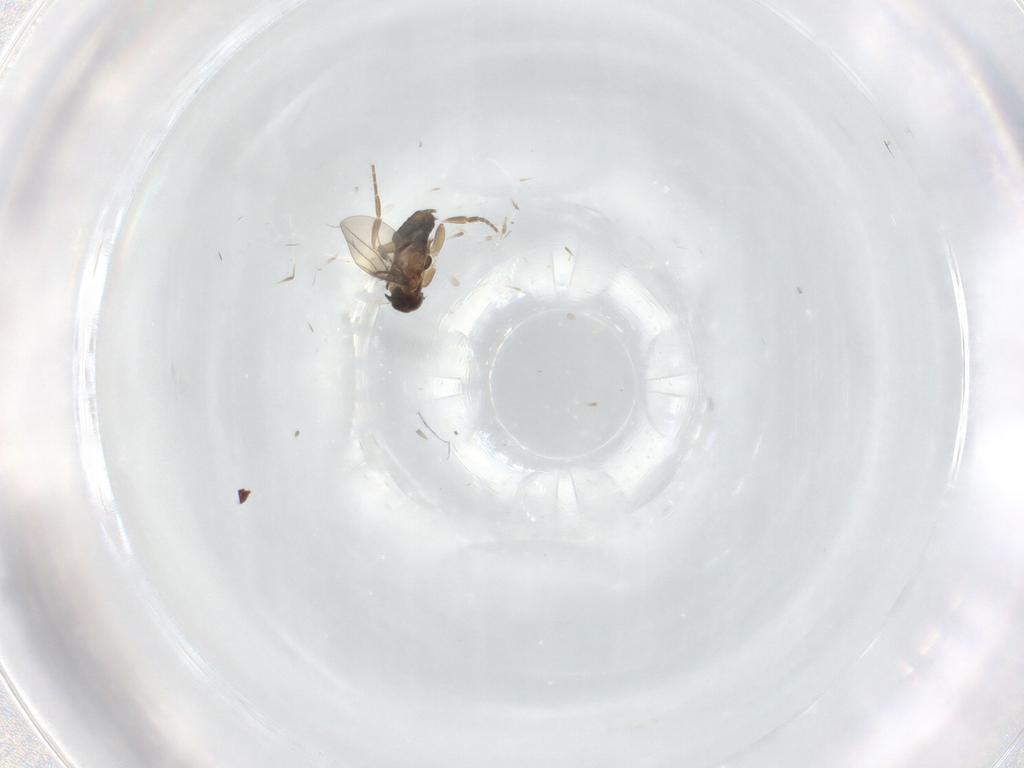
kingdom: Animalia
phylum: Arthropoda
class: Insecta
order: Diptera
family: Phoridae
